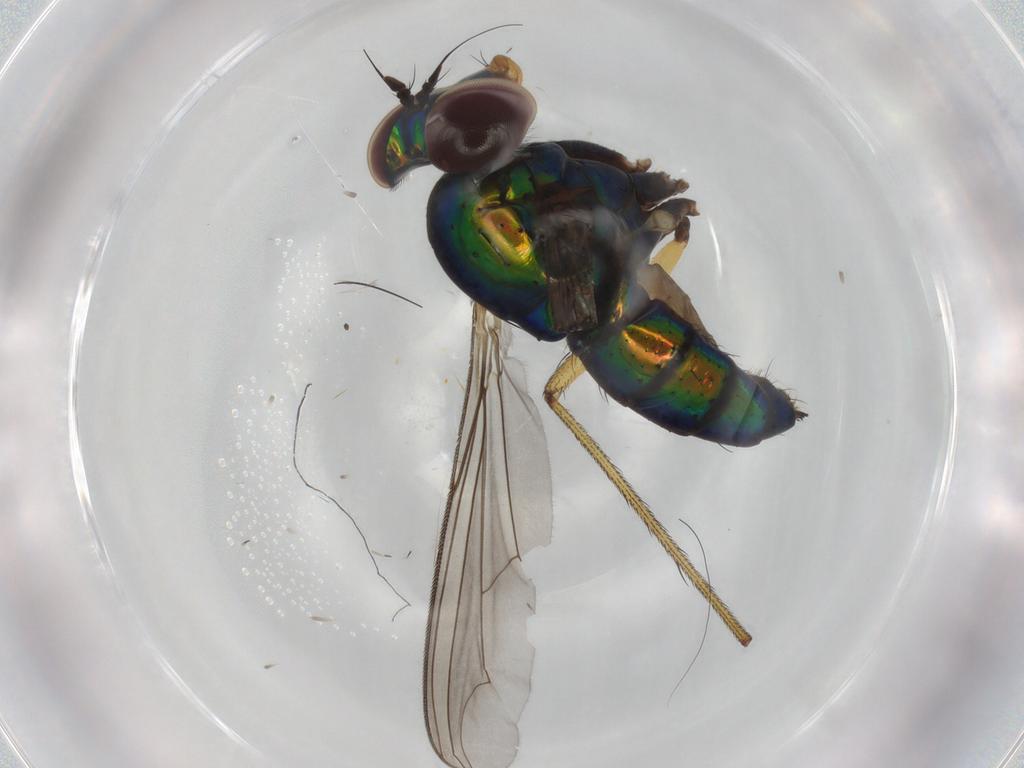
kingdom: Animalia
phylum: Arthropoda
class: Insecta
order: Diptera
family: Dolichopodidae
